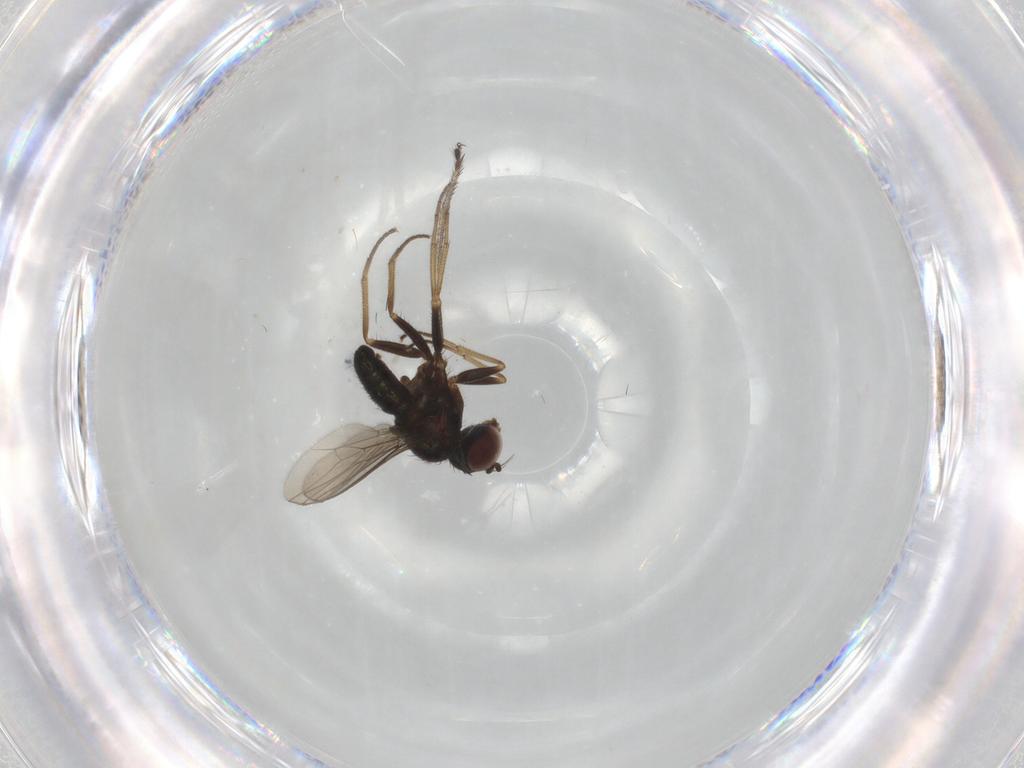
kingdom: Animalia
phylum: Arthropoda
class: Insecta
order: Diptera
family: Dolichopodidae
